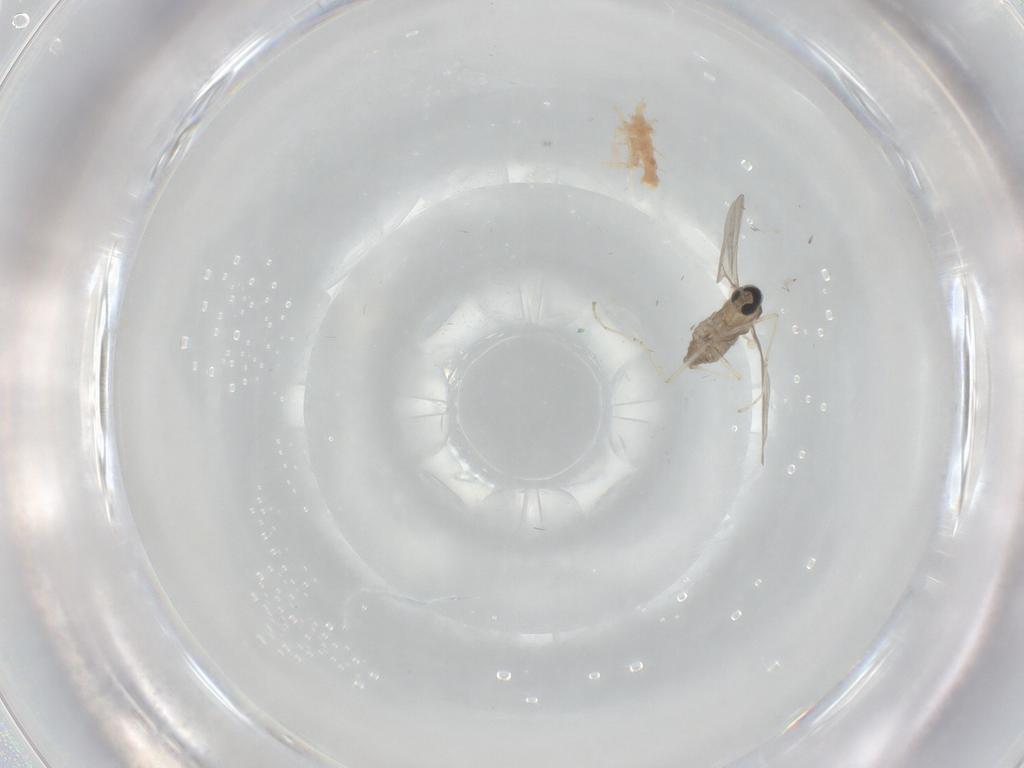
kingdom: Animalia
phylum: Arthropoda
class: Insecta
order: Diptera
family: Cecidomyiidae
